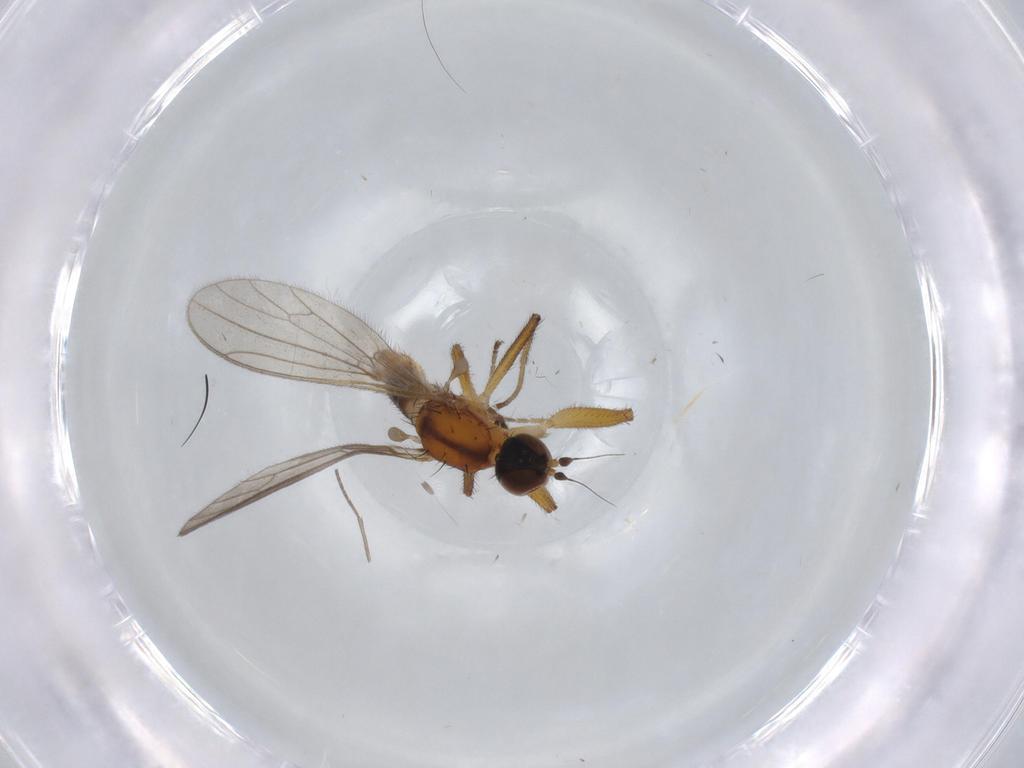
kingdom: Animalia
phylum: Arthropoda
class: Insecta
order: Diptera
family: Empididae
